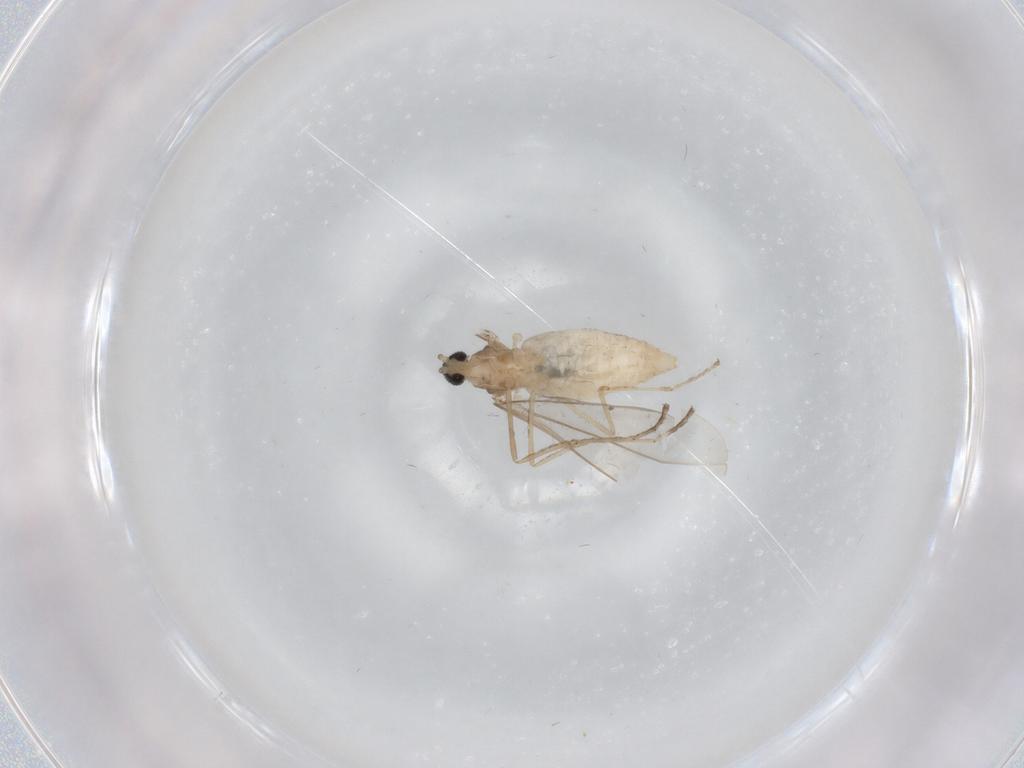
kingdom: Animalia
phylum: Arthropoda
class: Insecta
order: Diptera
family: Cecidomyiidae
